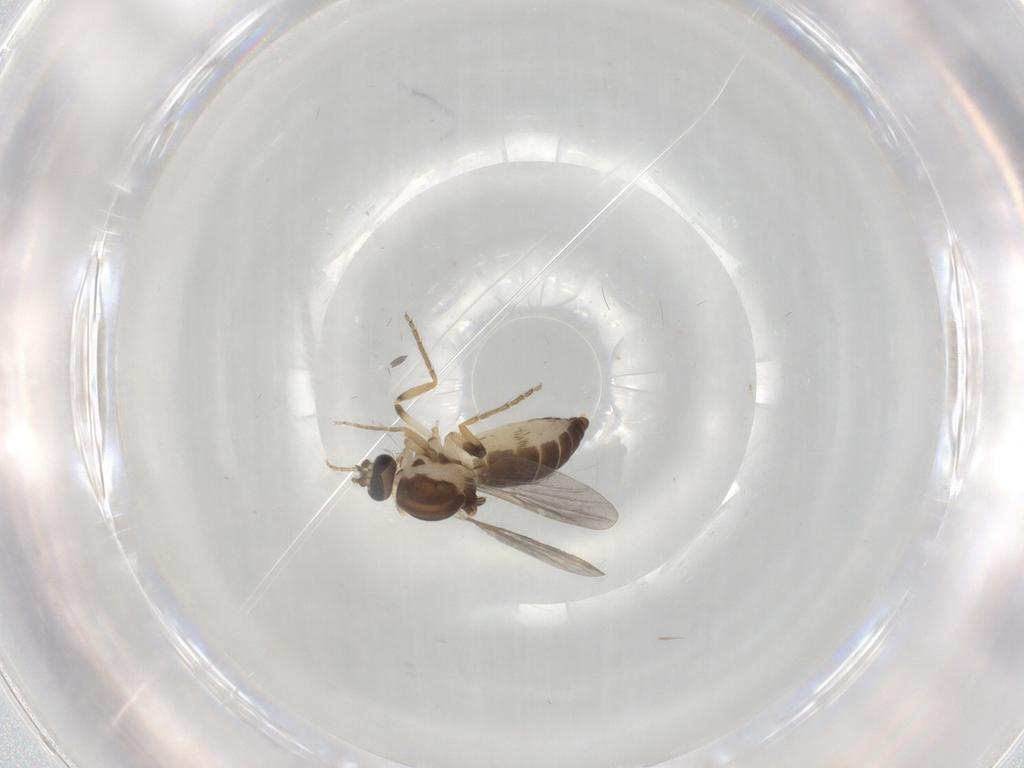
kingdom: Animalia
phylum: Arthropoda
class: Insecta
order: Diptera
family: Ceratopogonidae
